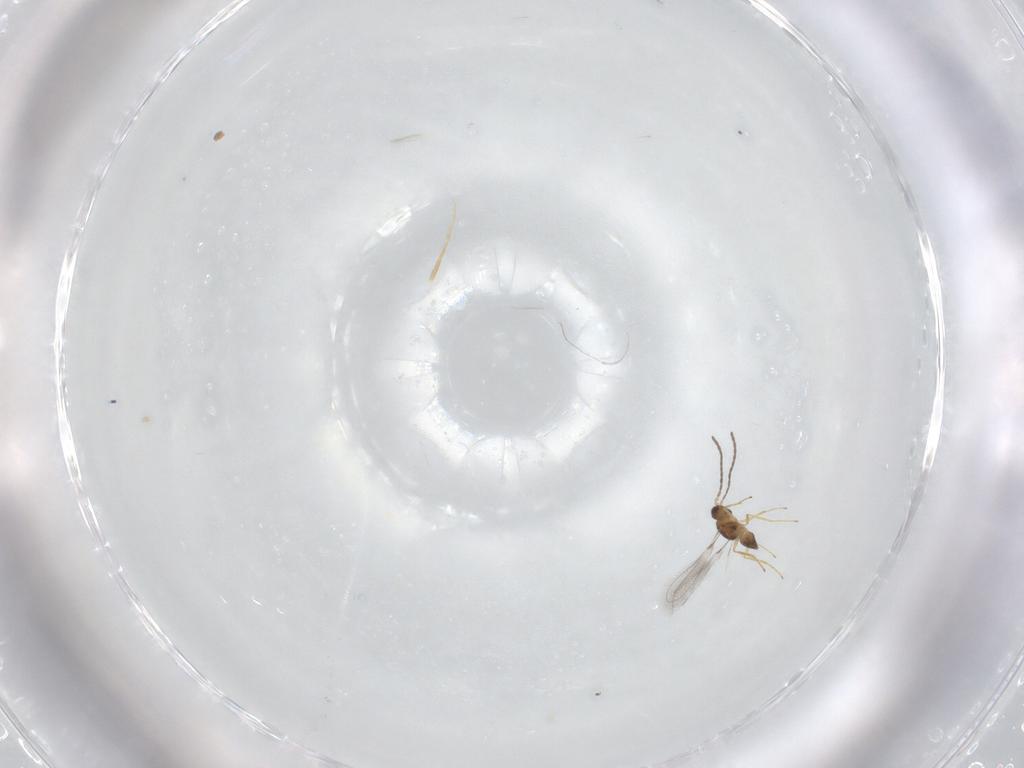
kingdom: Animalia
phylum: Arthropoda
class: Insecta
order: Hymenoptera
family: Mymaridae
